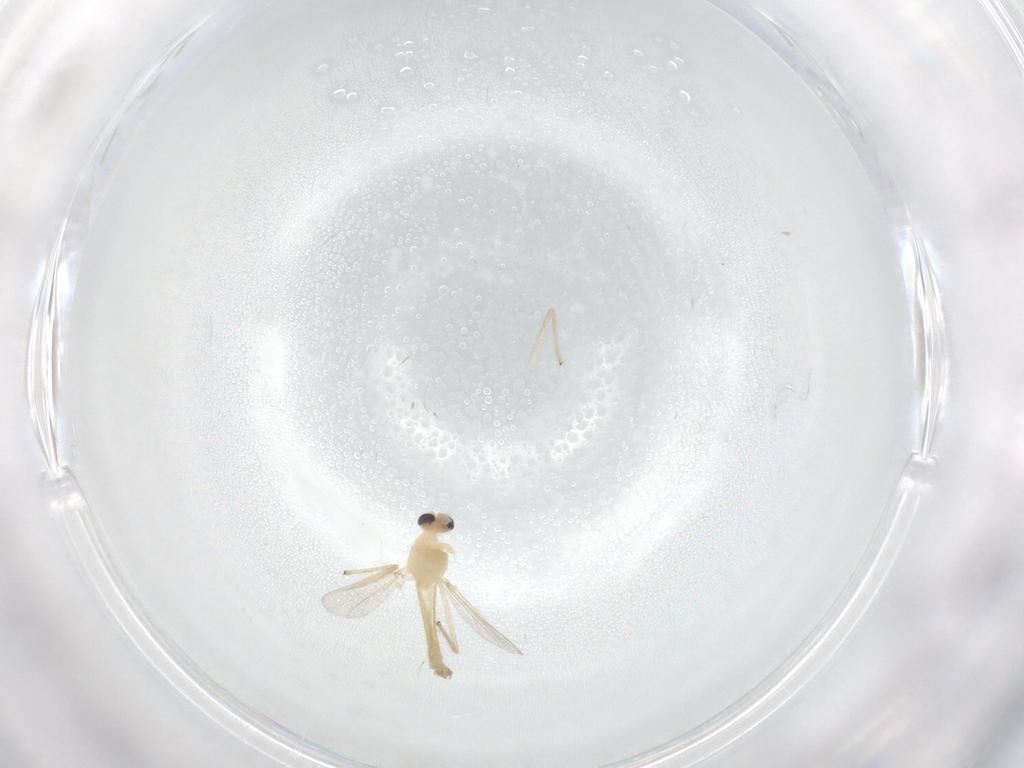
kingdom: Animalia
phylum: Arthropoda
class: Insecta
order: Diptera
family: Chironomidae
